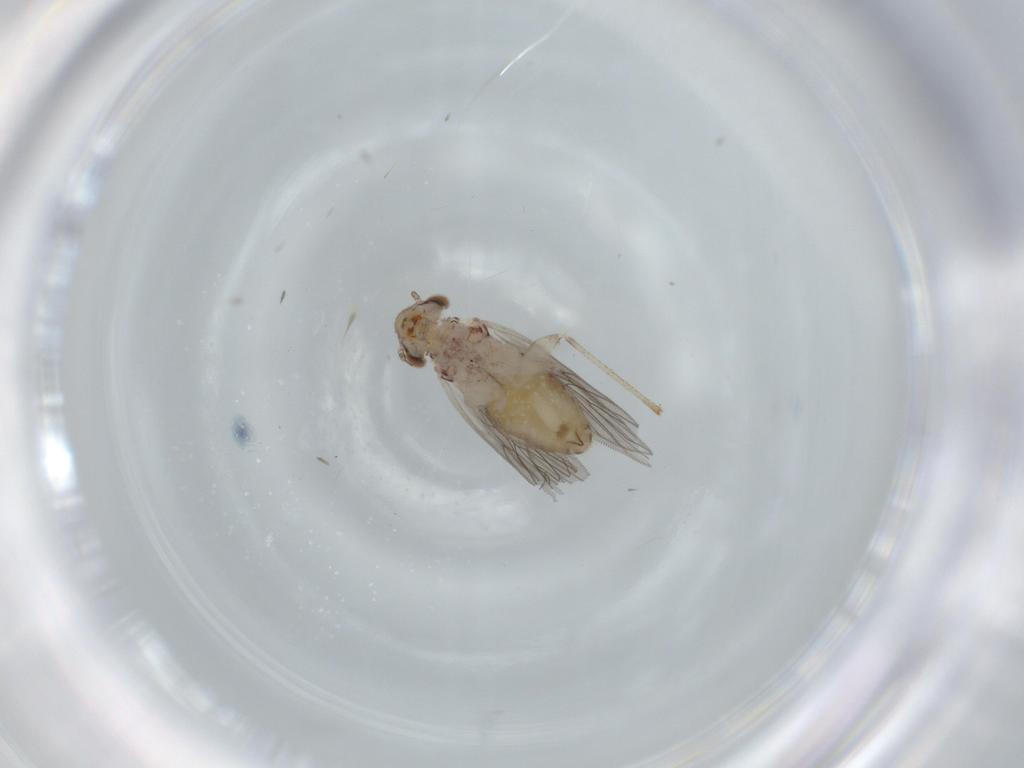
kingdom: Animalia
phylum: Arthropoda
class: Insecta
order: Psocodea
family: Lepidopsocidae
